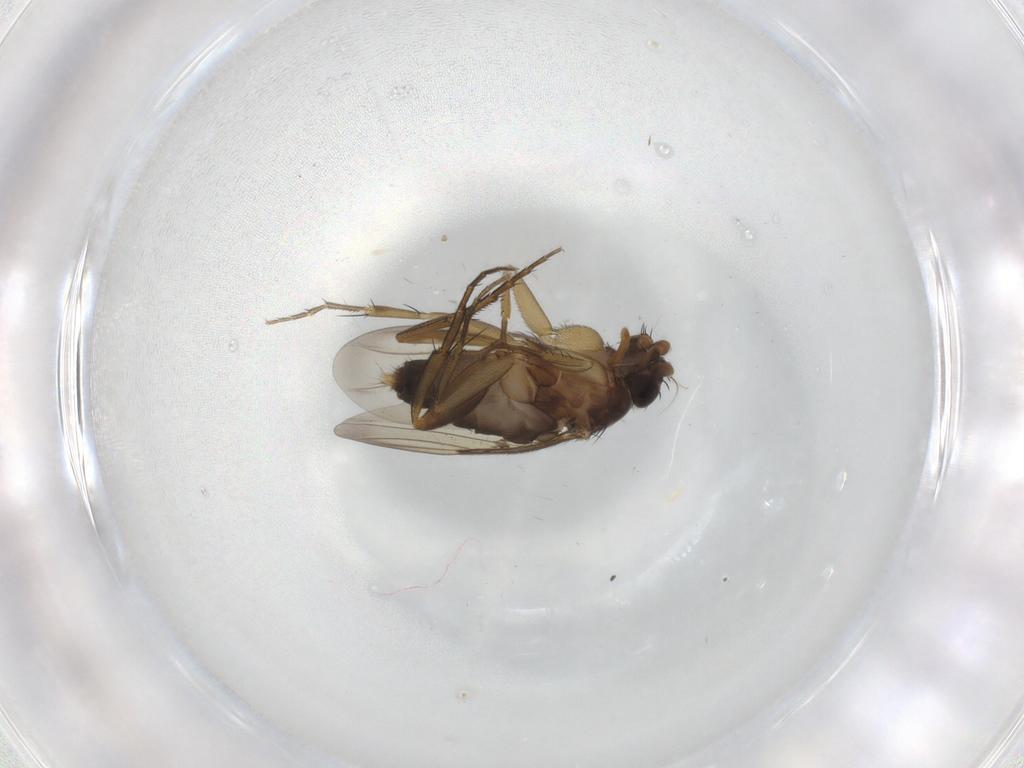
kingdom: Animalia
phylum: Arthropoda
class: Insecta
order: Diptera
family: Phoridae
